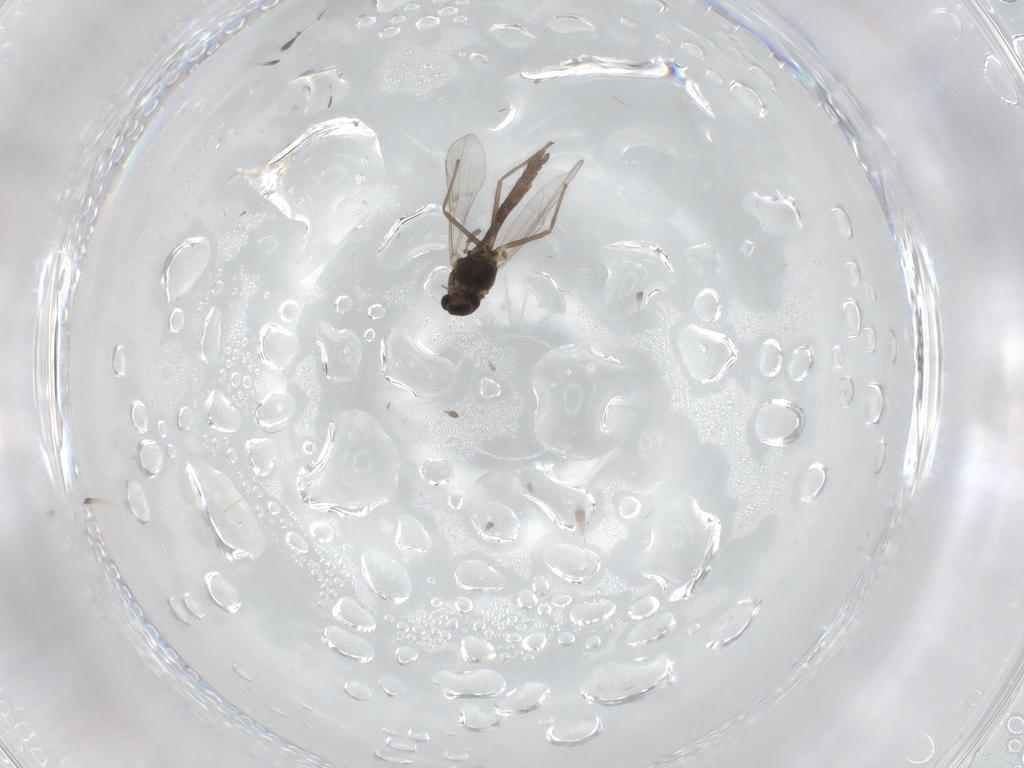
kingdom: Animalia
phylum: Arthropoda
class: Insecta
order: Diptera
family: Chironomidae
